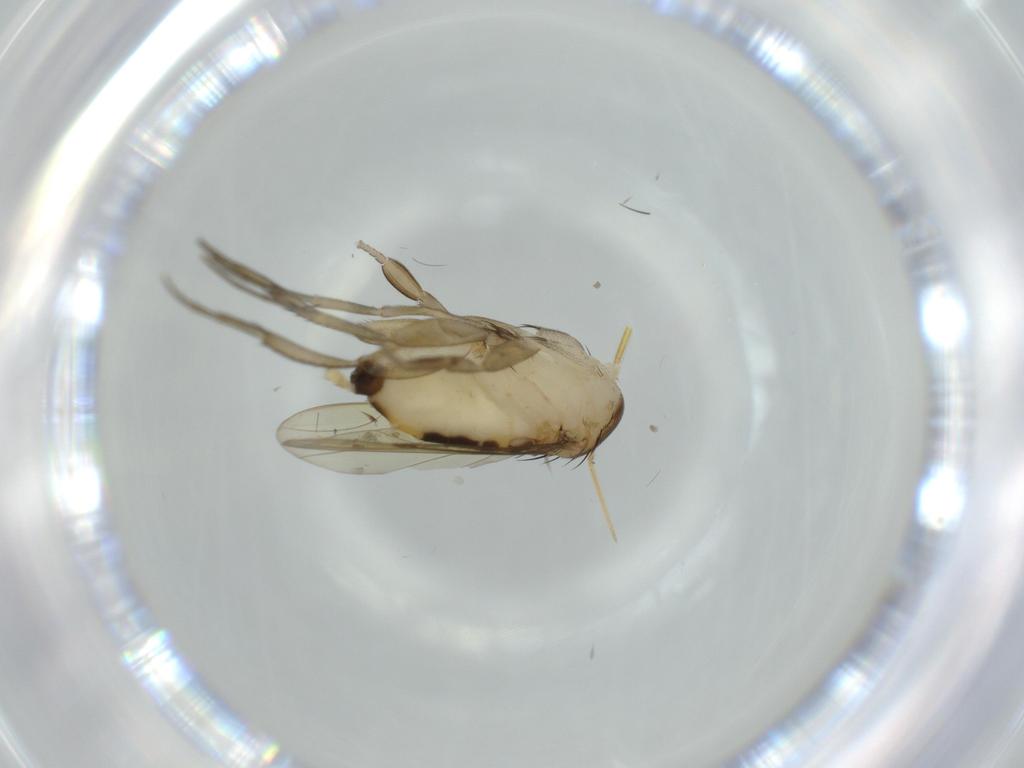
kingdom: Animalia
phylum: Arthropoda
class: Insecta
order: Diptera
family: Phoridae
